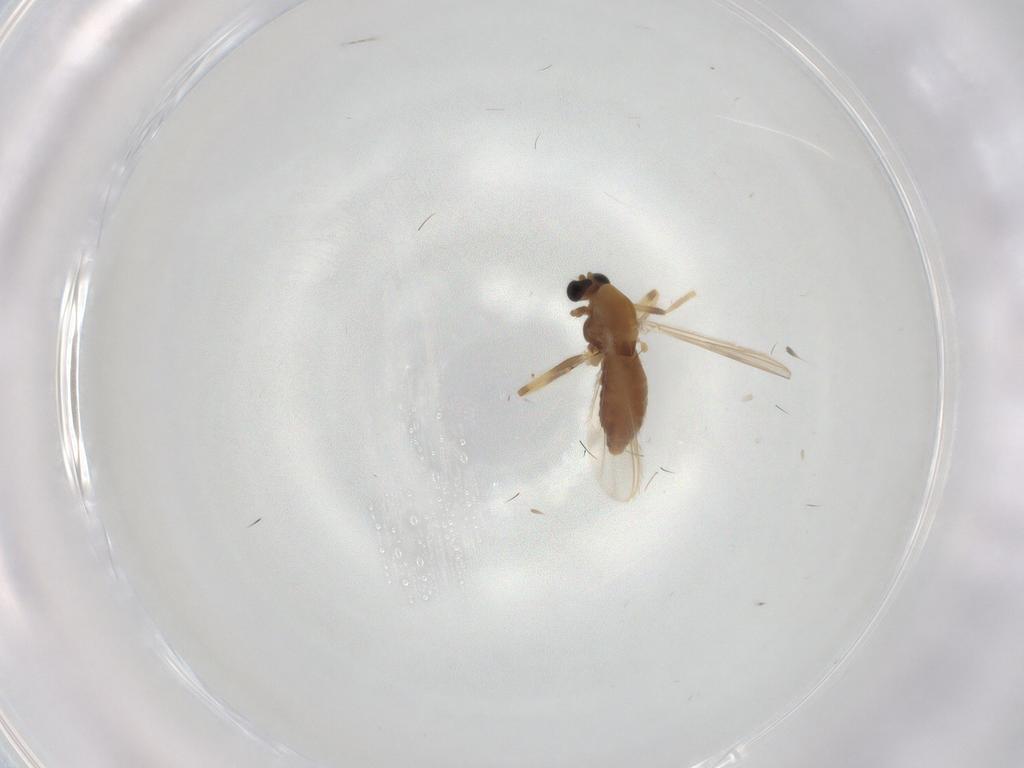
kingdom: Animalia
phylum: Arthropoda
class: Insecta
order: Diptera
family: Chironomidae
